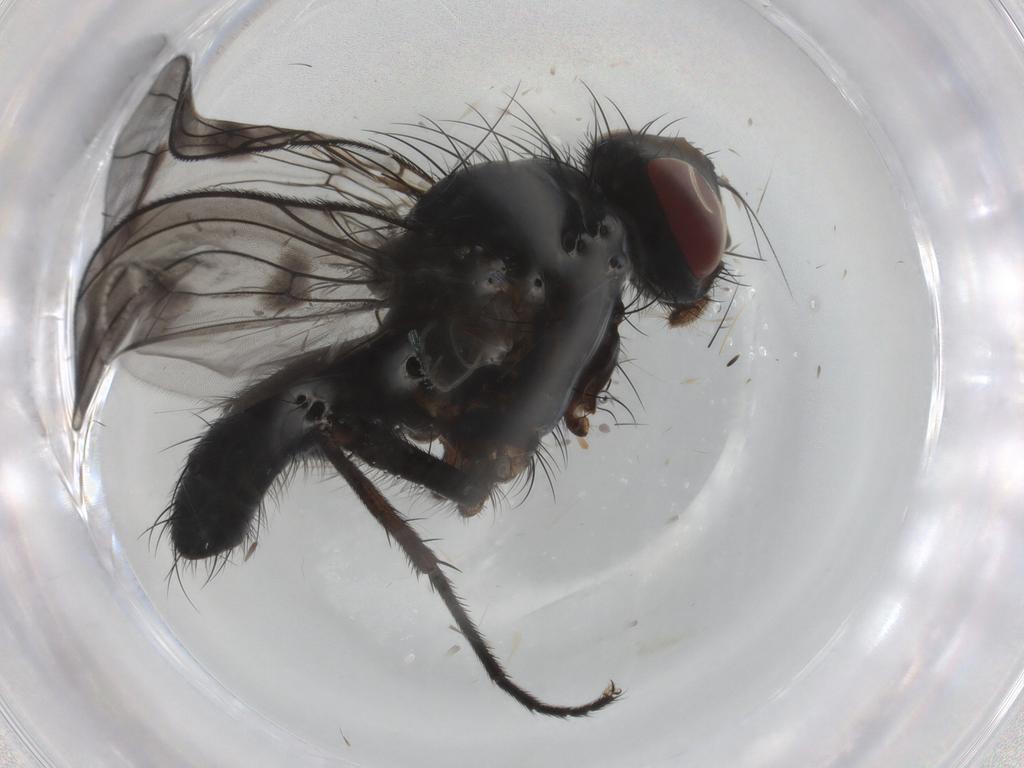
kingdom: Animalia
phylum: Arthropoda
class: Insecta
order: Diptera
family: Muscidae
